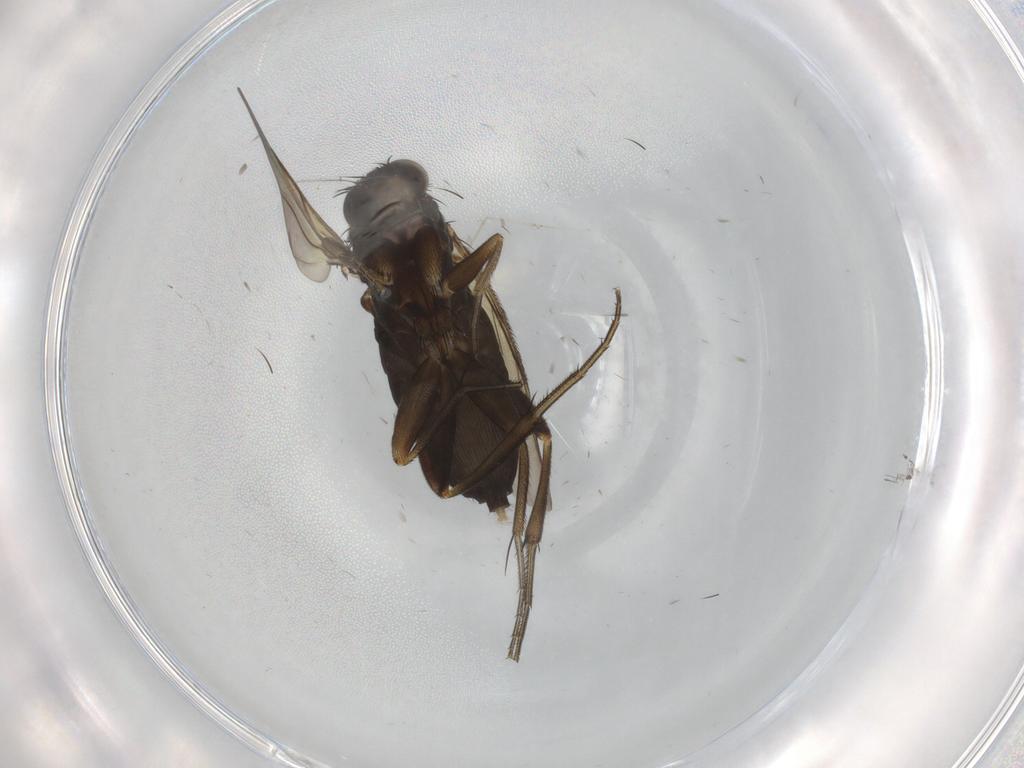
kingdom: Animalia
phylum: Arthropoda
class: Insecta
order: Diptera
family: Phoridae
